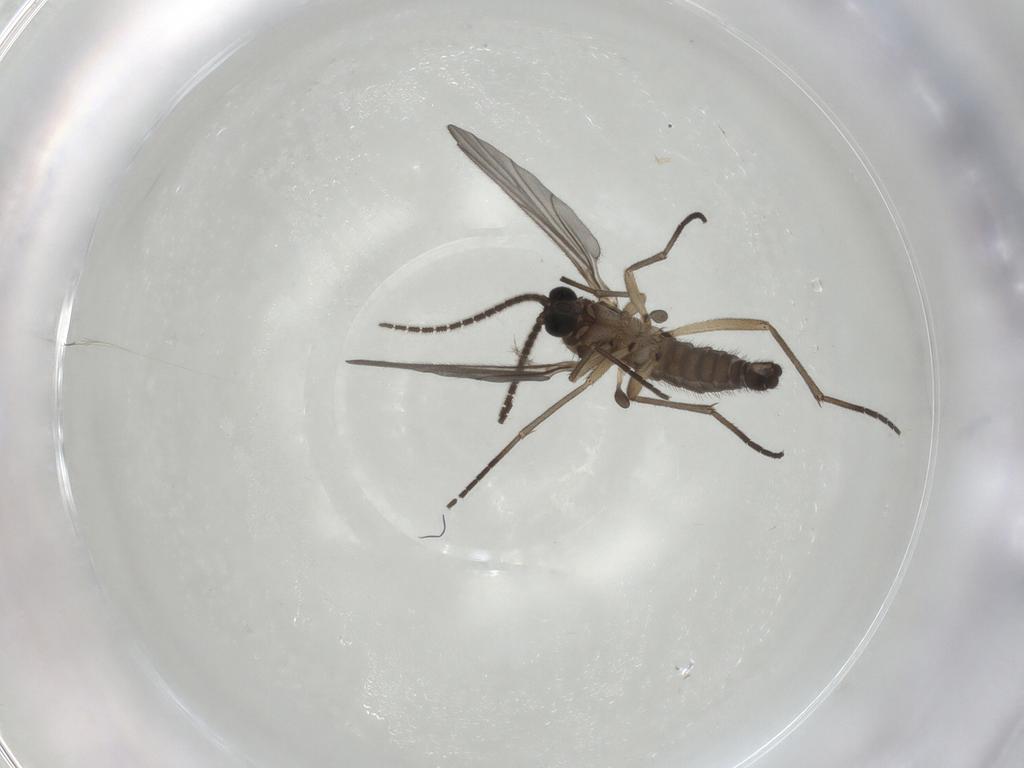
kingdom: Animalia
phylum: Arthropoda
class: Insecta
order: Diptera
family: Sciaridae
